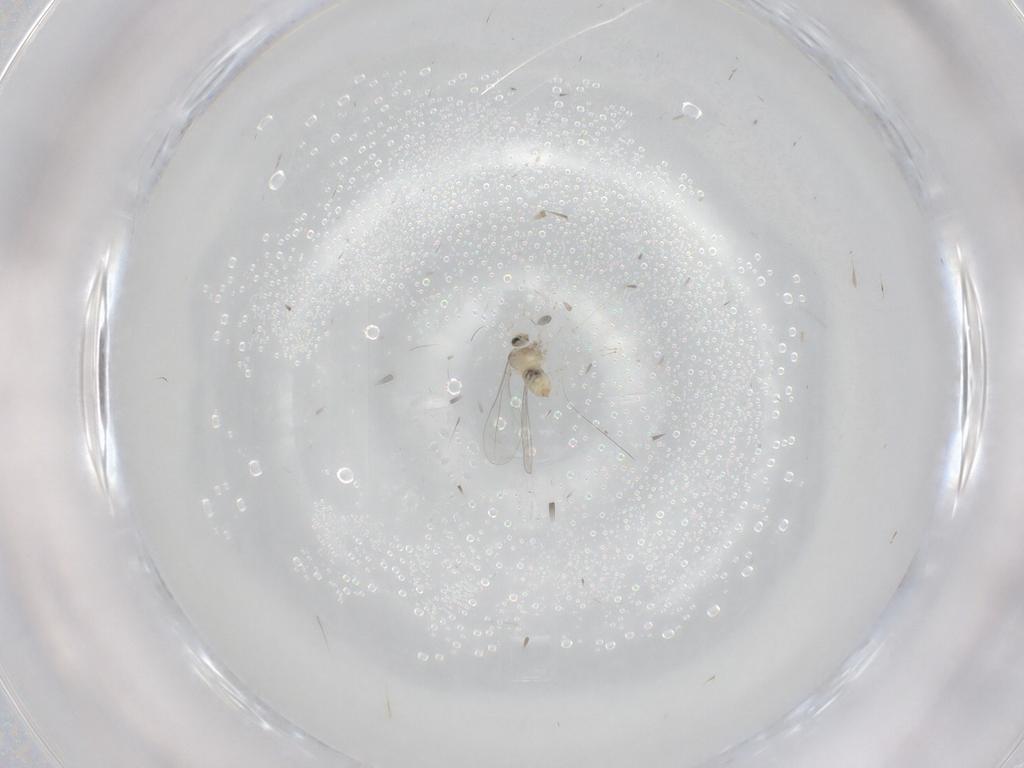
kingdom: Animalia
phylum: Arthropoda
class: Insecta
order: Diptera
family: Cecidomyiidae
